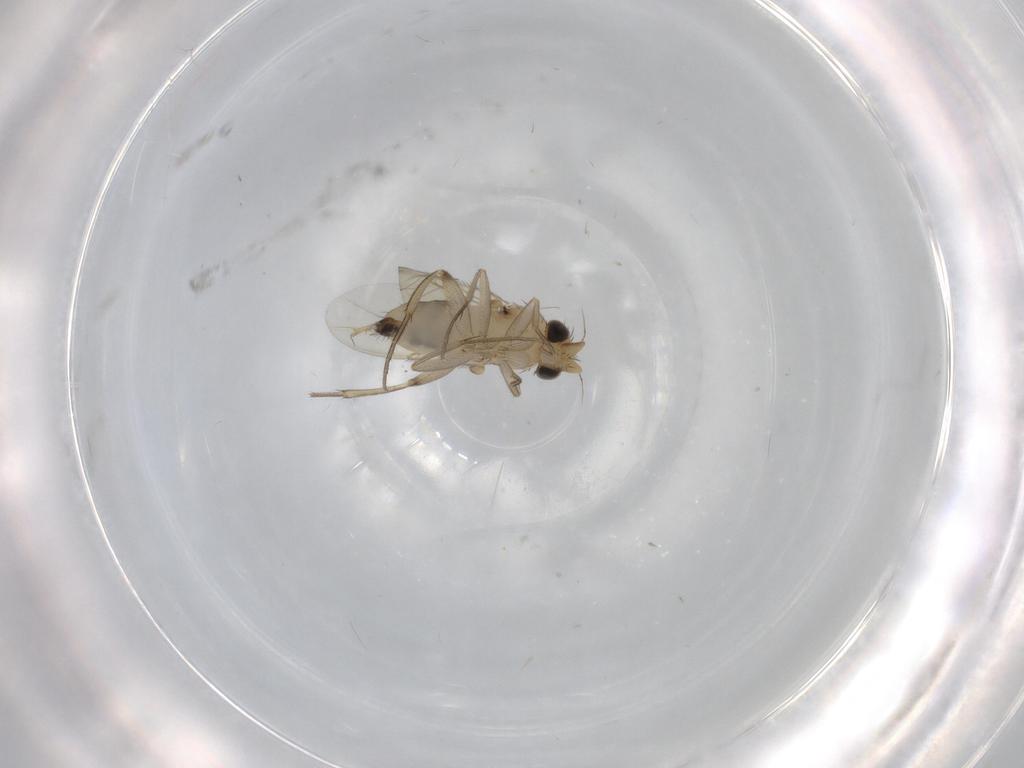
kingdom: Animalia
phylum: Arthropoda
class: Insecta
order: Diptera
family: Phoridae
